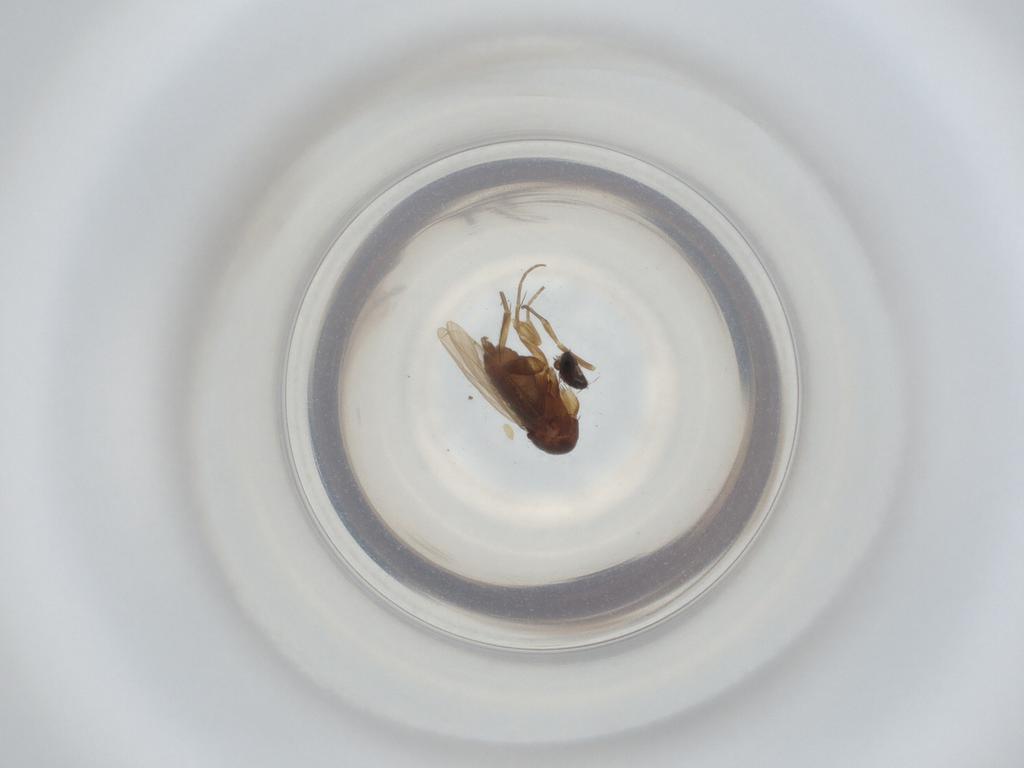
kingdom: Animalia
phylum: Arthropoda
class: Insecta
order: Diptera
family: Phoridae
